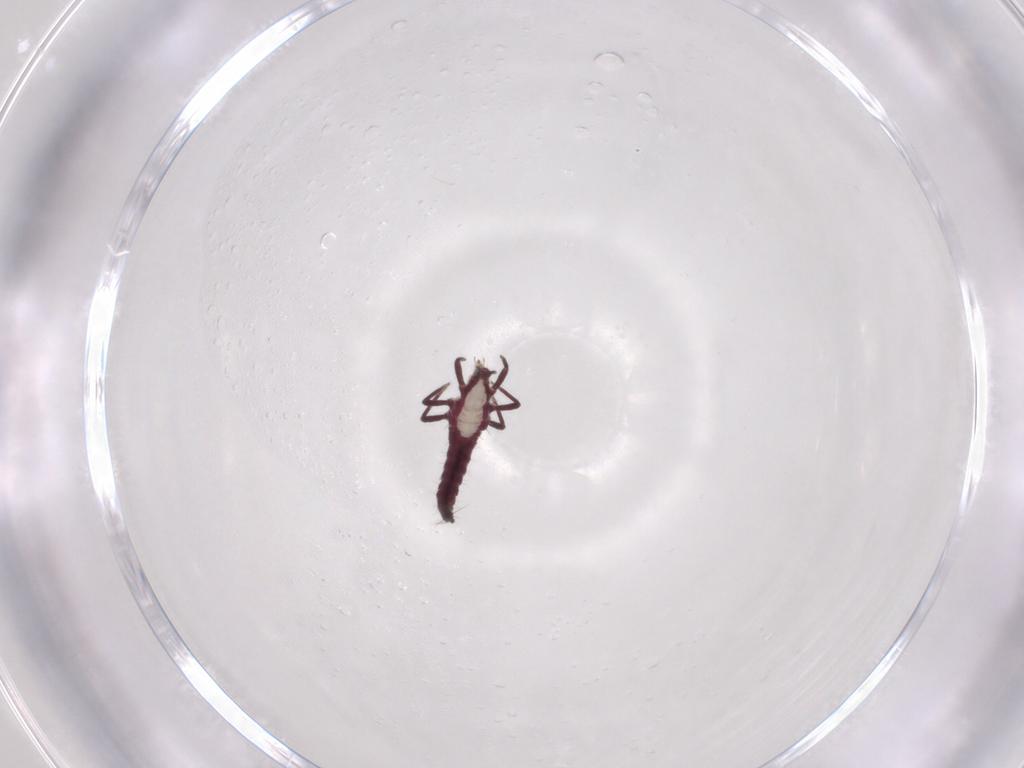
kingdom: Animalia
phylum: Arthropoda
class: Insecta
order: Thysanoptera
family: Phlaeothripidae
